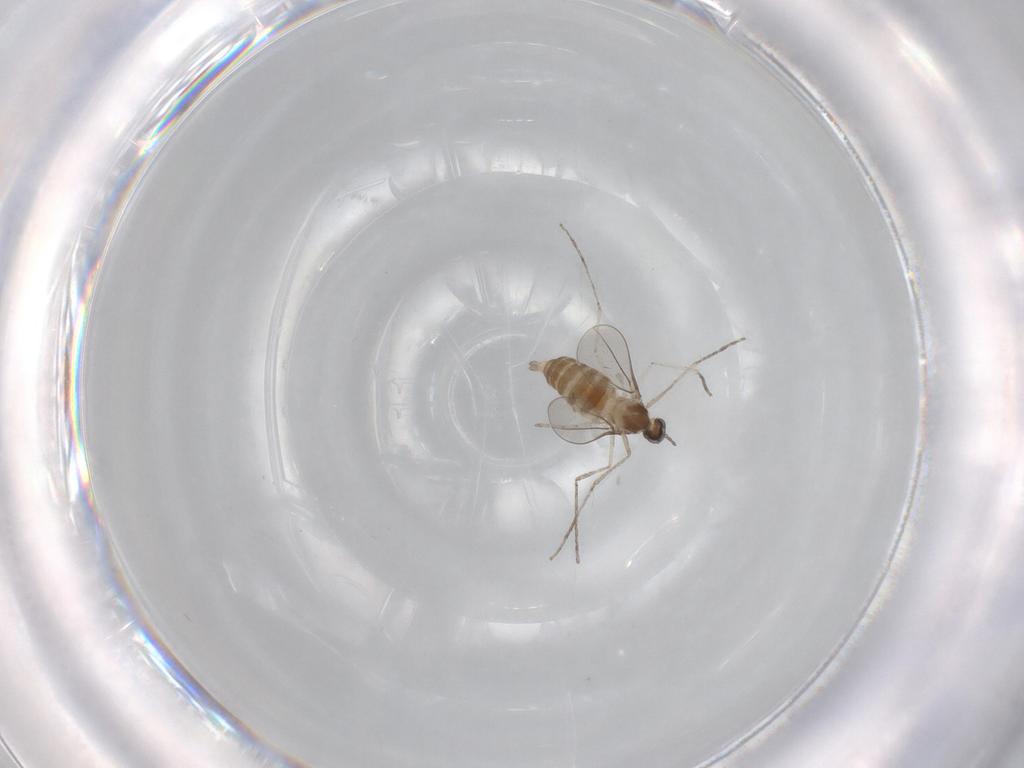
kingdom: Animalia
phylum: Arthropoda
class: Insecta
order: Diptera
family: Cecidomyiidae
